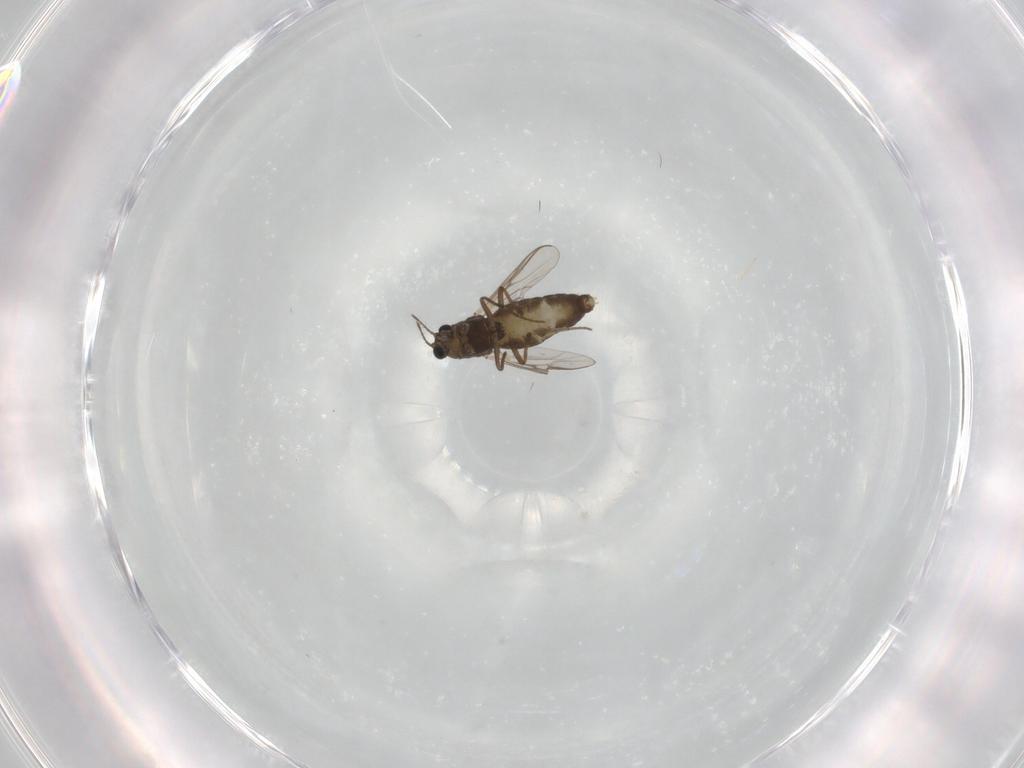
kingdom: Animalia
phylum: Arthropoda
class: Insecta
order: Diptera
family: Chironomidae
